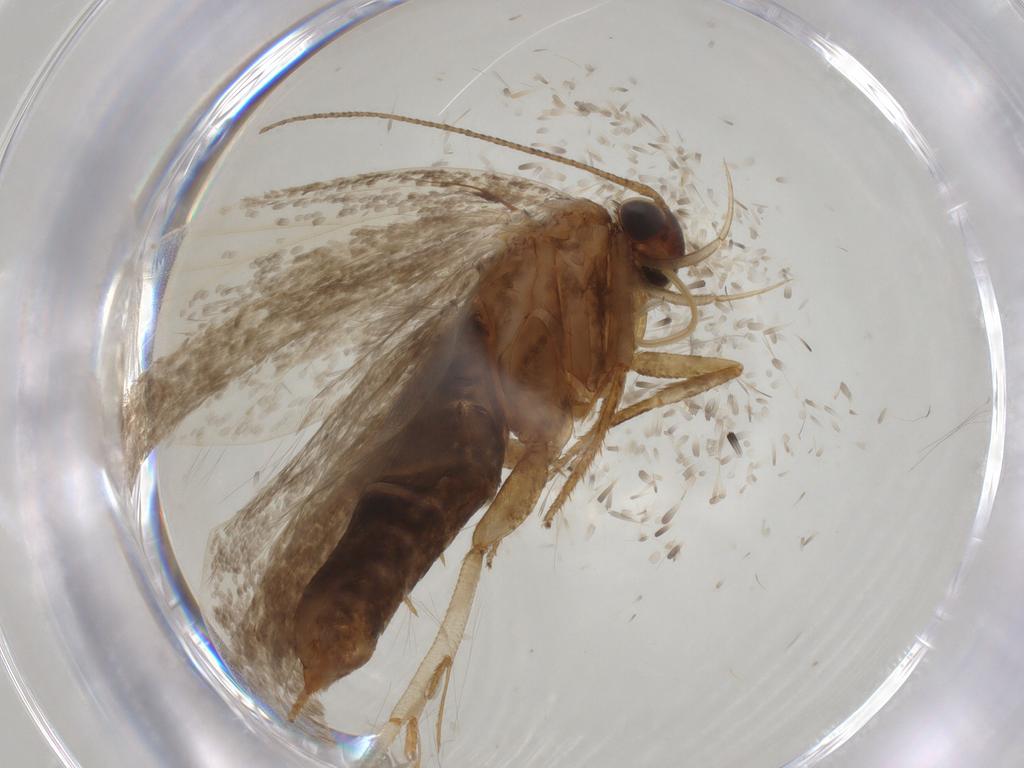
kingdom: Animalia
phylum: Arthropoda
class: Insecta
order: Lepidoptera
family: Gelechiidae
